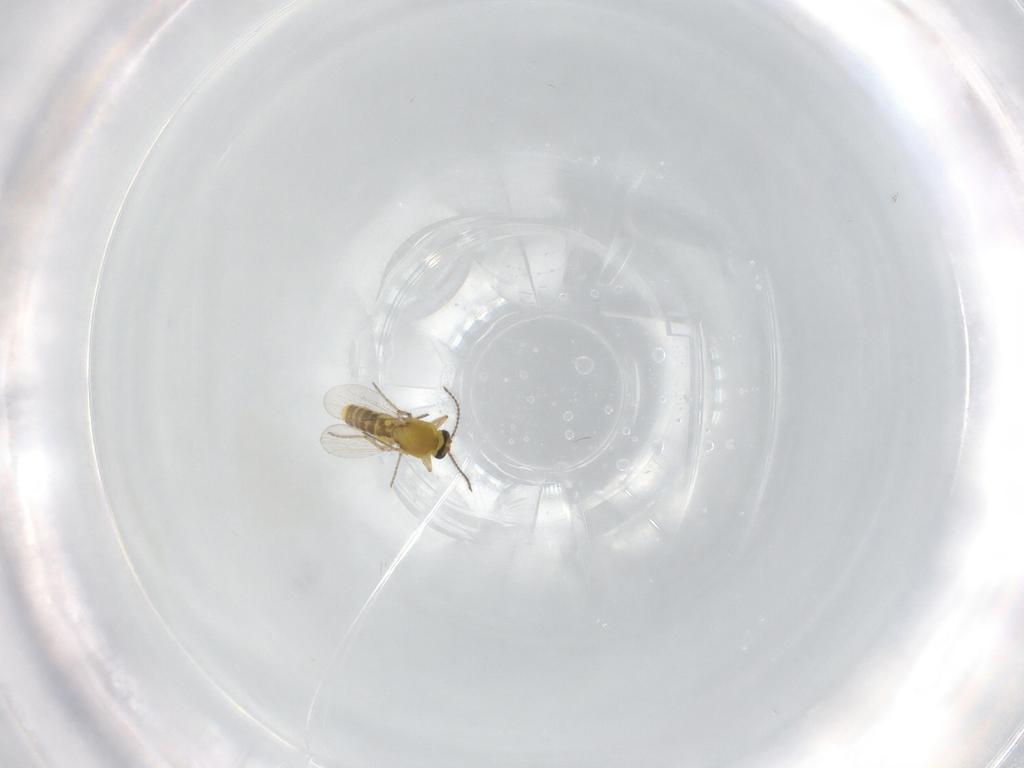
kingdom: Animalia
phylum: Arthropoda
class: Insecta
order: Diptera
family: Ceratopogonidae
